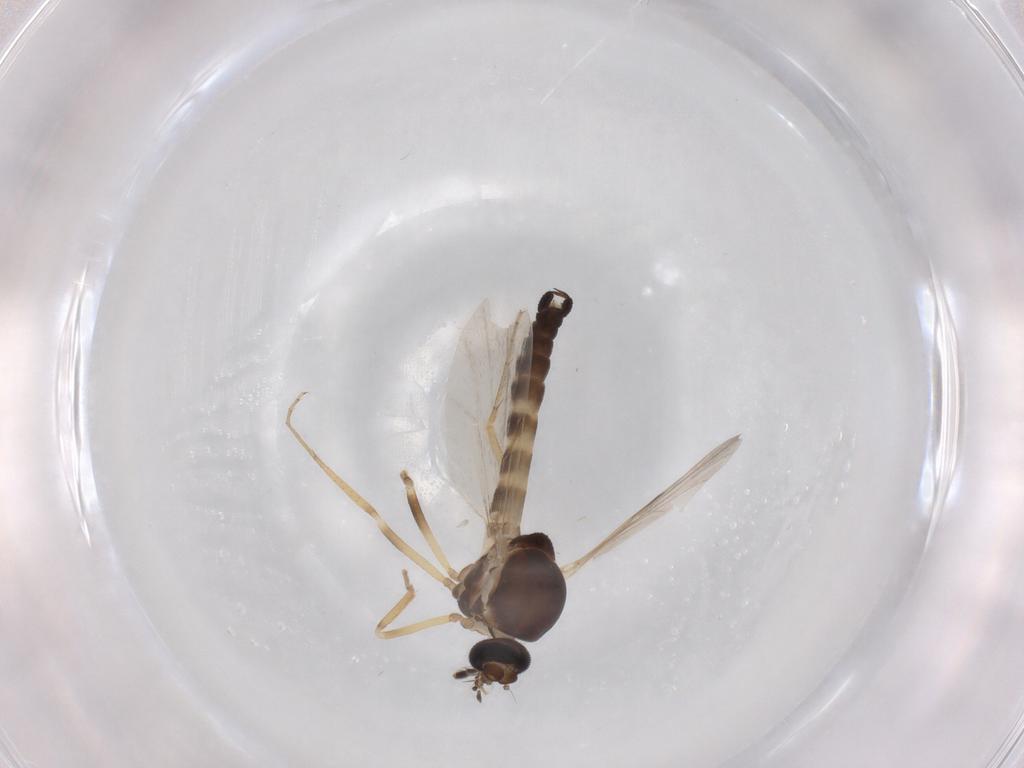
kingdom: Animalia
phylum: Arthropoda
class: Insecta
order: Diptera
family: Ceratopogonidae
